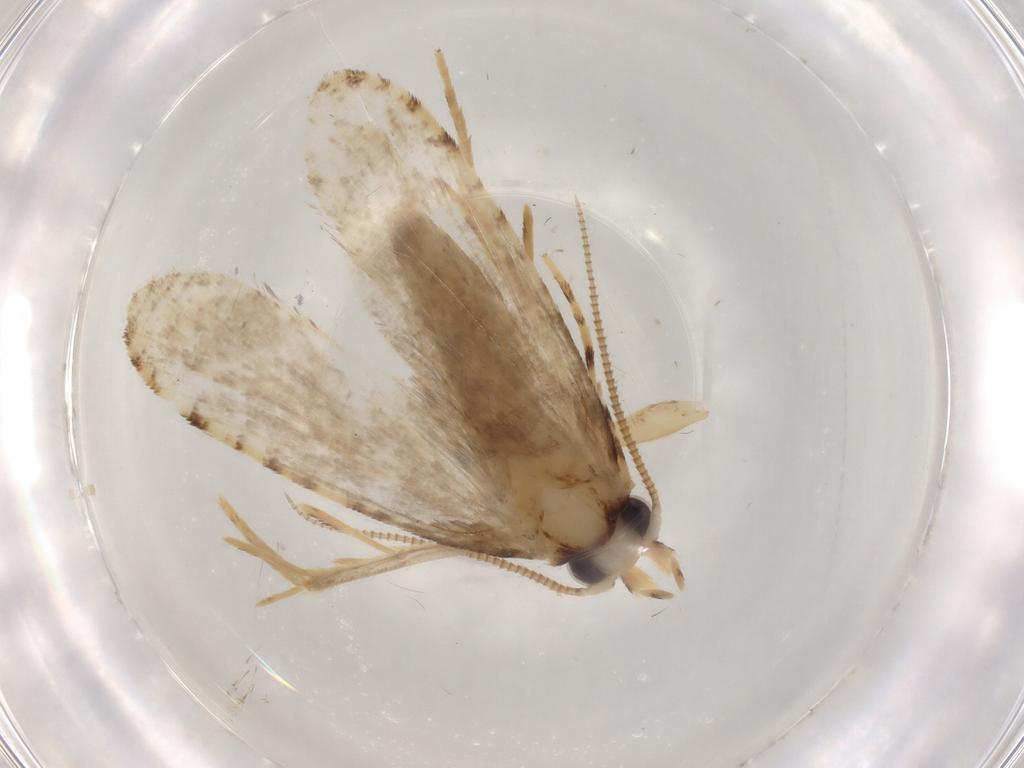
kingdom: Animalia
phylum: Arthropoda
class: Insecta
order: Lepidoptera
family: Tineidae
